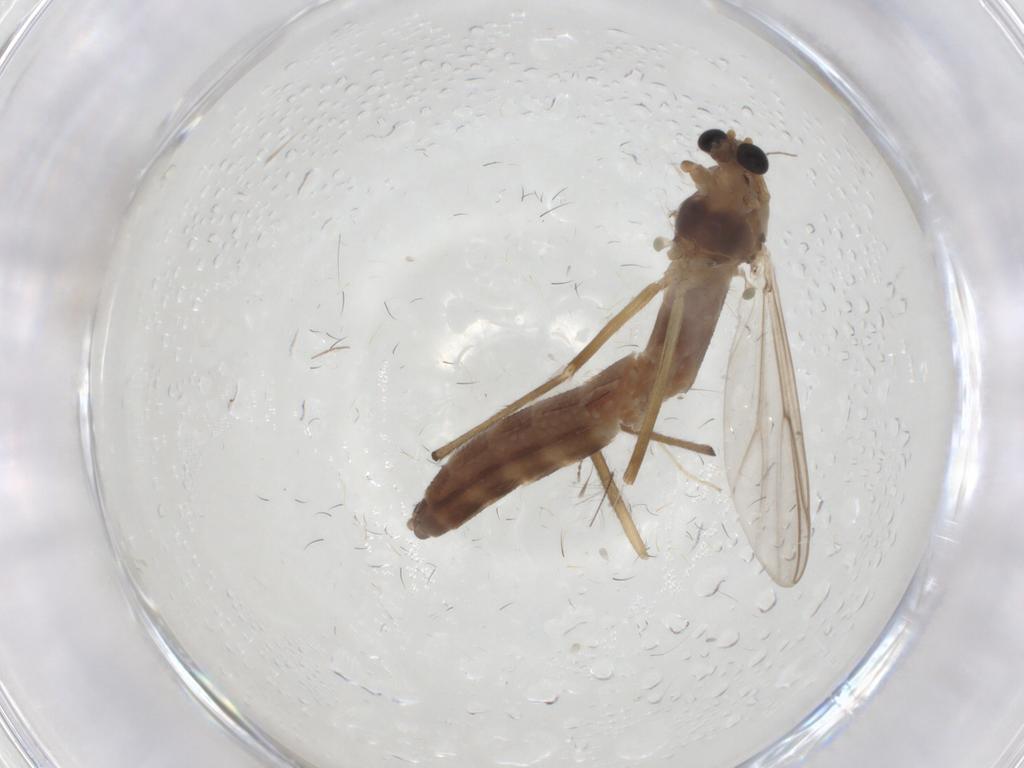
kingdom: Animalia
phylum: Arthropoda
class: Insecta
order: Diptera
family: Chironomidae
